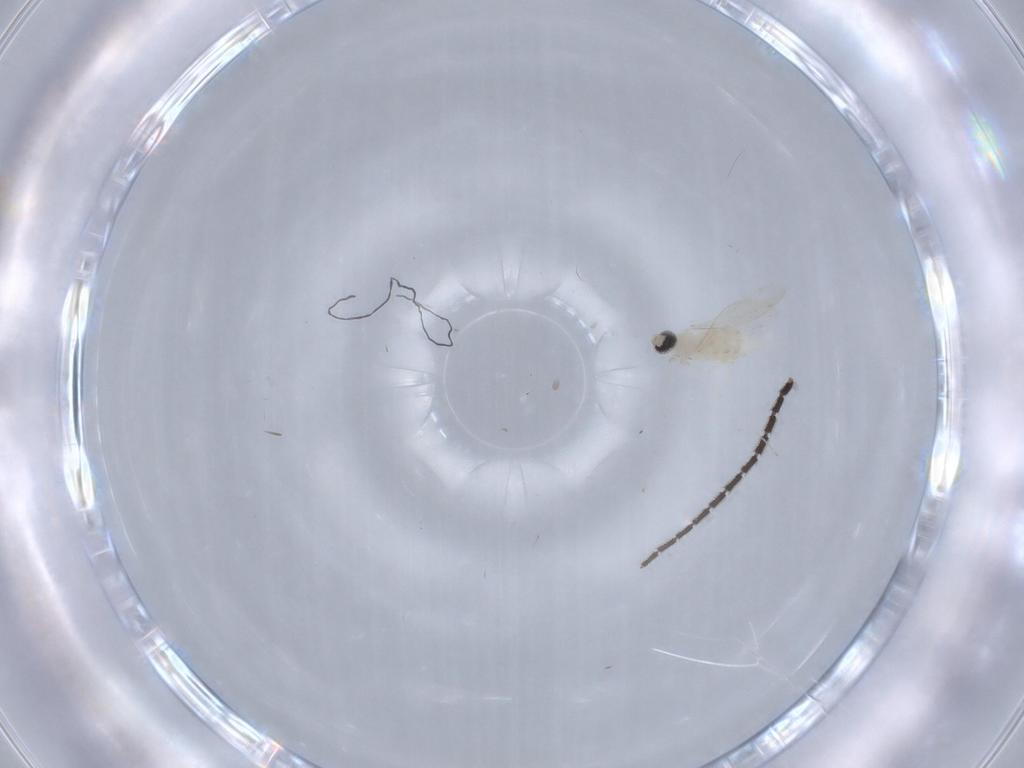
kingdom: Animalia
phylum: Arthropoda
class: Insecta
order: Diptera
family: Cecidomyiidae
